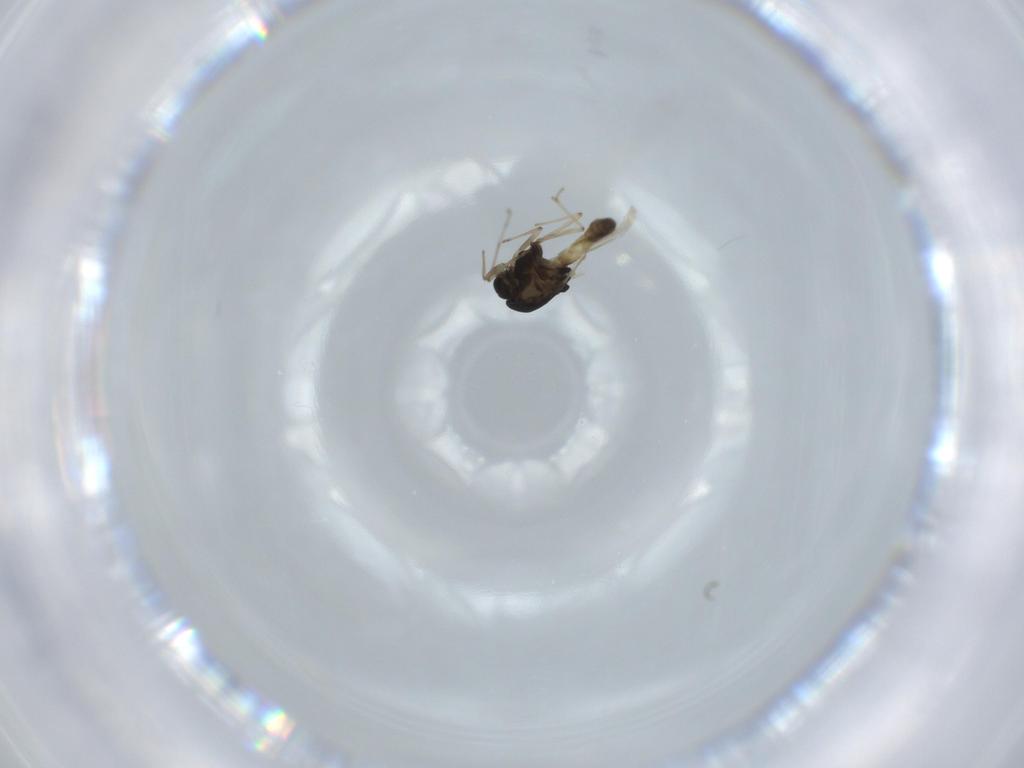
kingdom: Animalia
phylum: Arthropoda
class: Insecta
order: Diptera
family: Chironomidae
